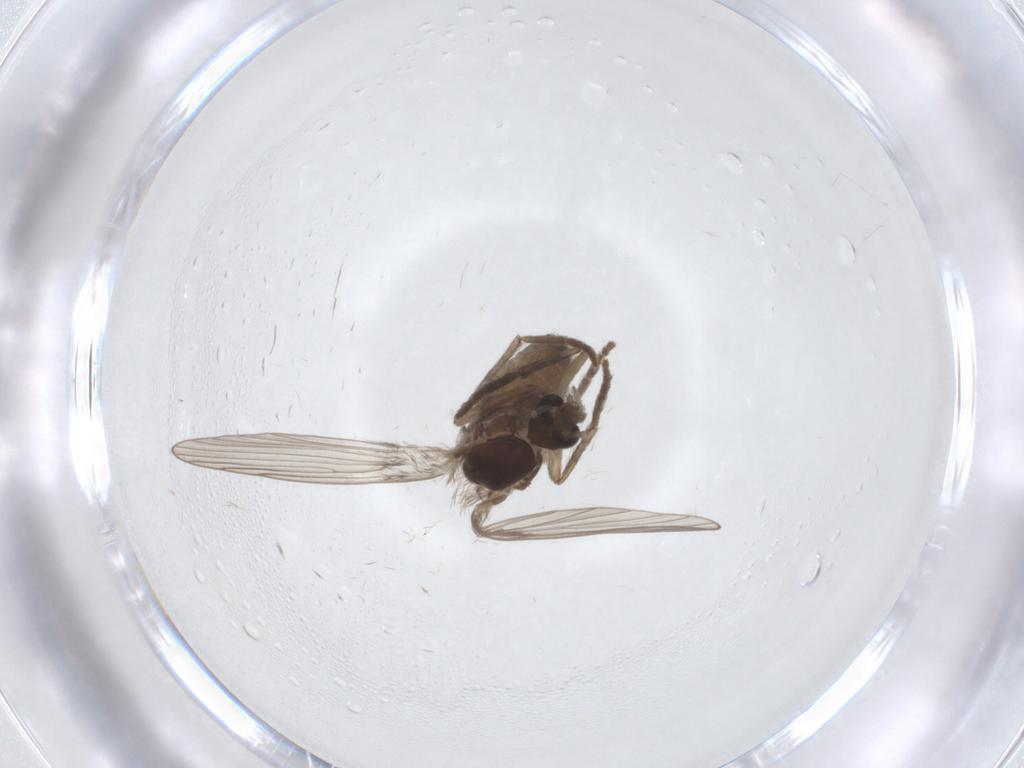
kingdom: Animalia
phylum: Arthropoda
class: Insecta
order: Diptera
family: Psychodidae
